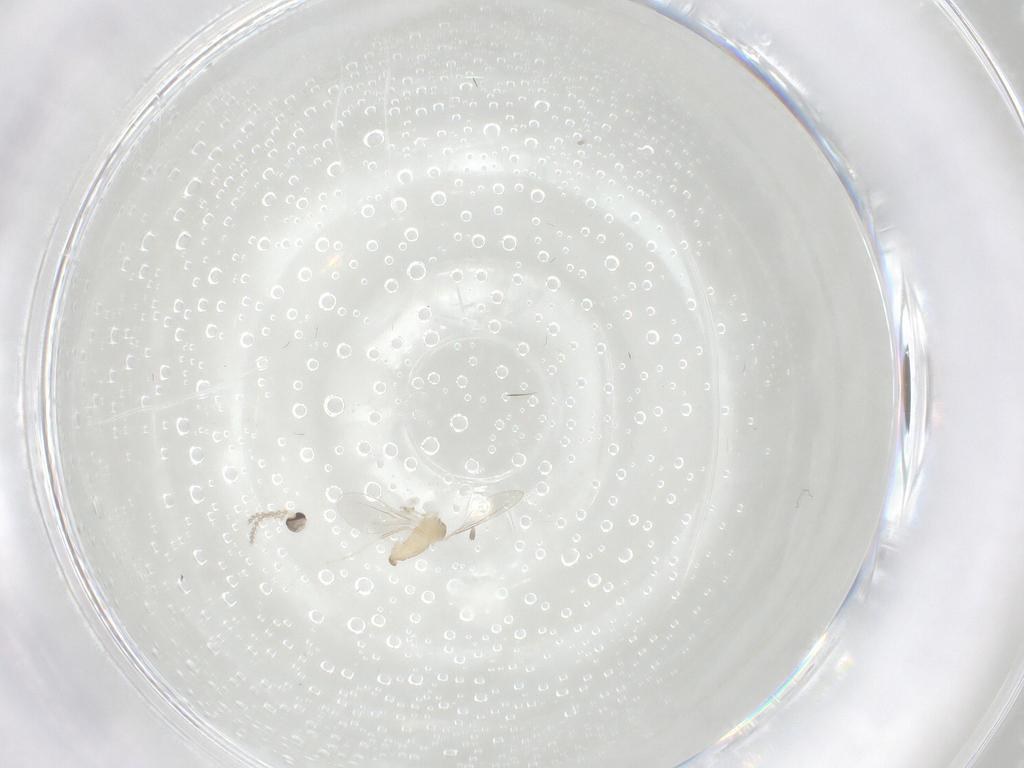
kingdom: Animalia
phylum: Arthropoda
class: Insecta
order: Diptera
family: Cecidomyiidae
